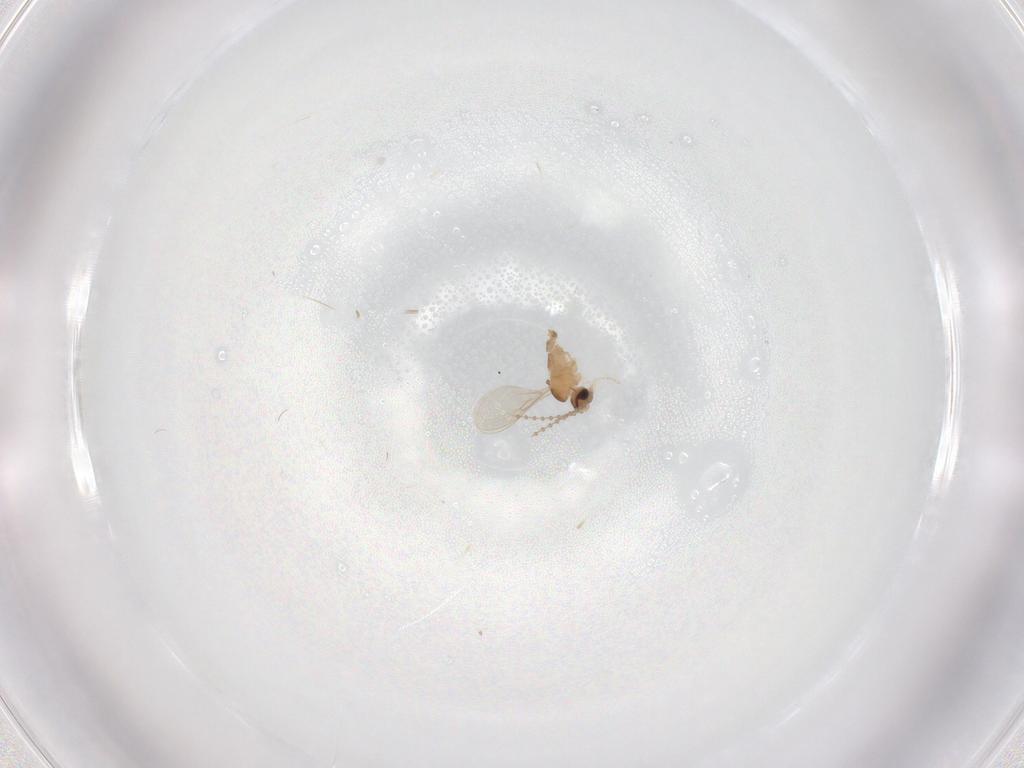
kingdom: Animalia
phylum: Arthropoda
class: Insecta
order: Diptera
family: Cecidomyiidae
